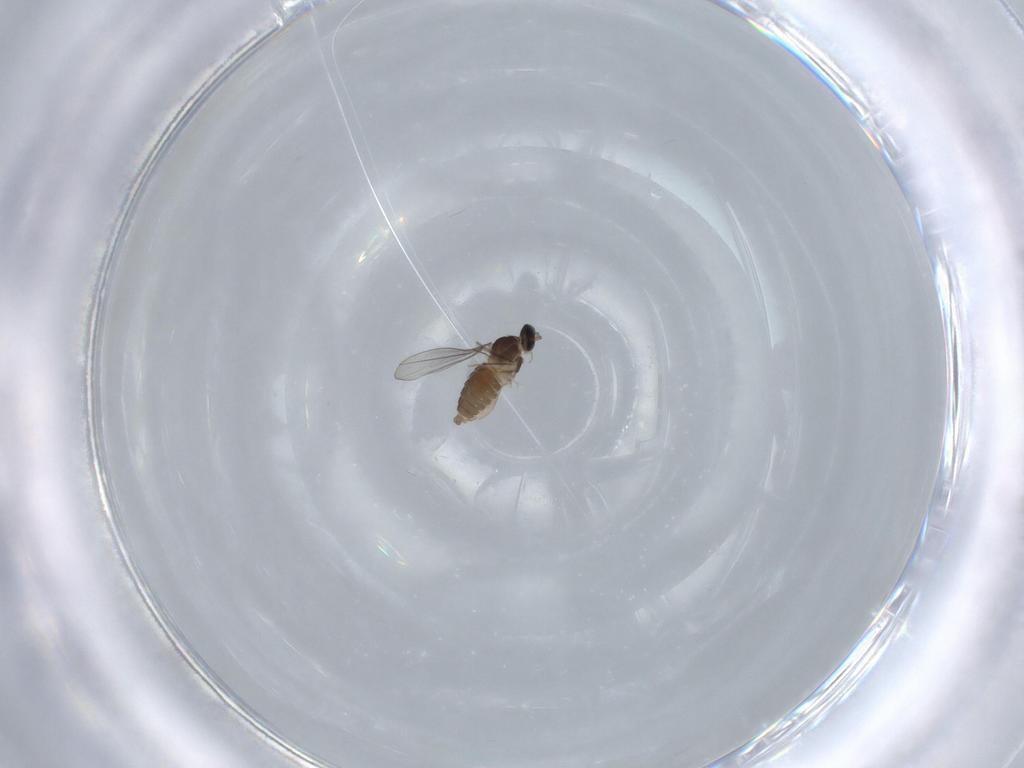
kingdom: Animalia
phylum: Arthropoda
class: Insecta
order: Diptera
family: Cecidomyiidae
